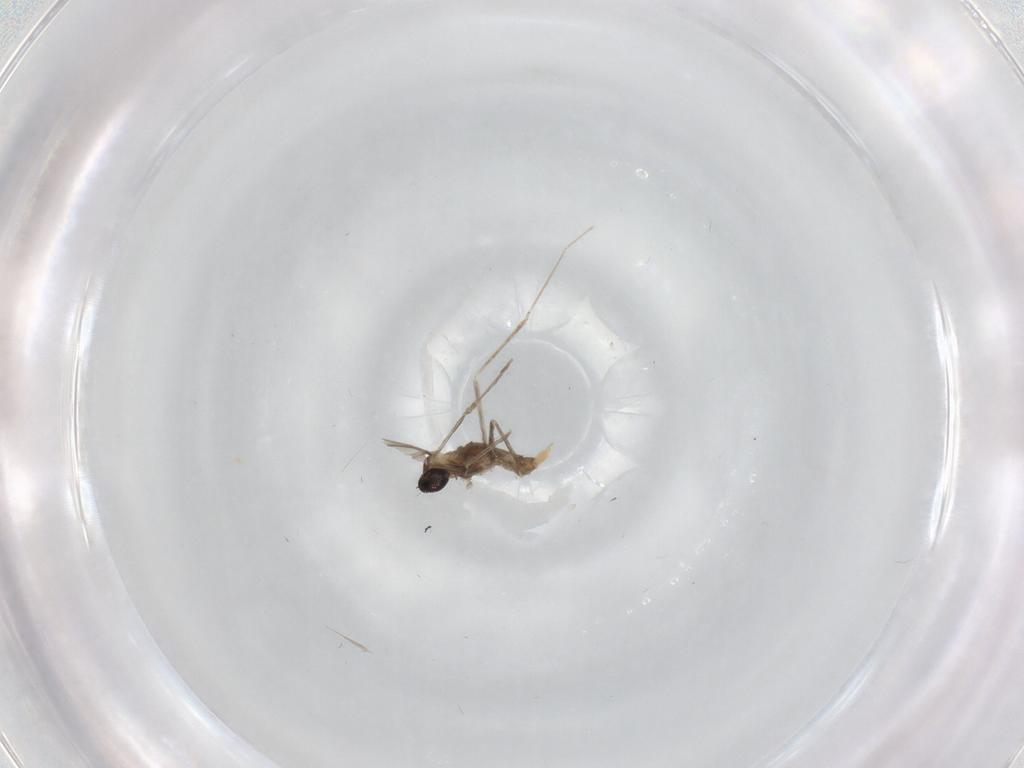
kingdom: Animalia
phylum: Arthropoda
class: Insecta
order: Diptera
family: Cecidomyiidae
